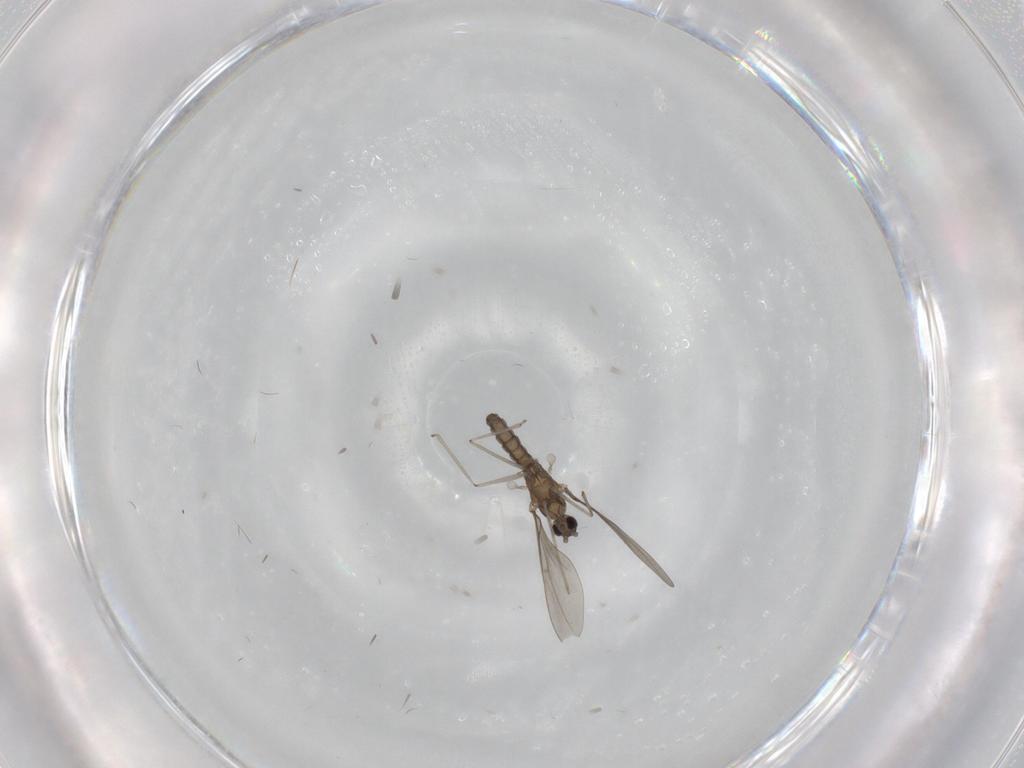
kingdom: Animalia
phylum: Arthropoda
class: Insecta
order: Diptera
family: Cecidomyiidae
